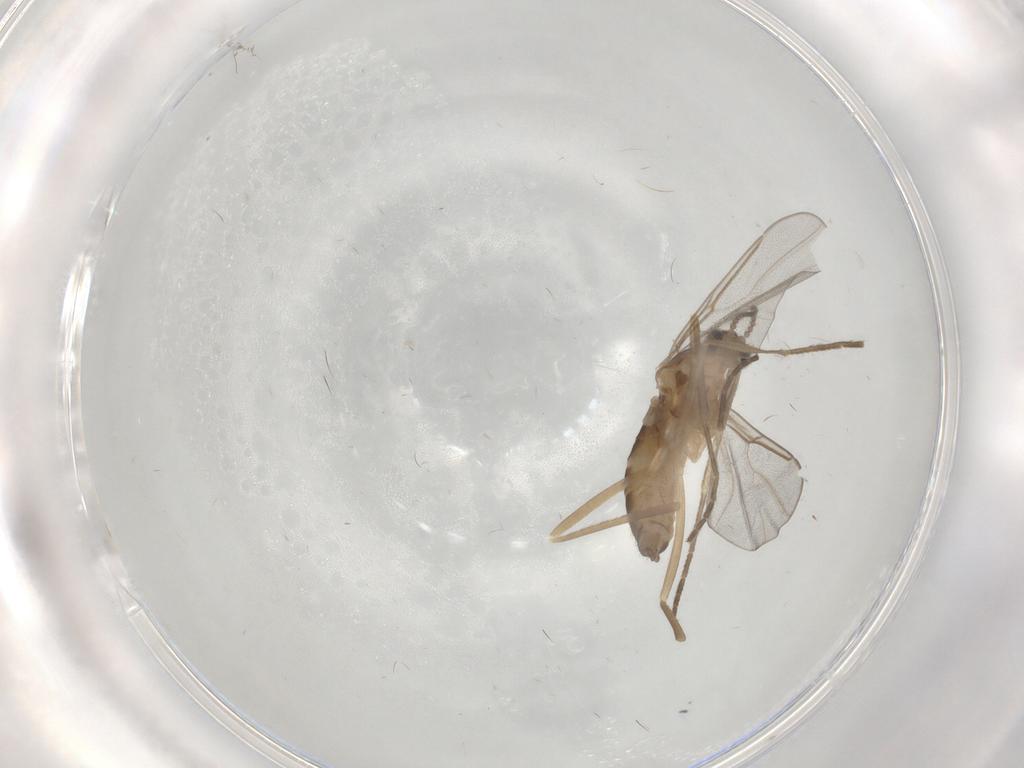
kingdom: Animalia
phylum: Arthropoda
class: Insecta
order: Diptera
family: Cecidomyiidae
